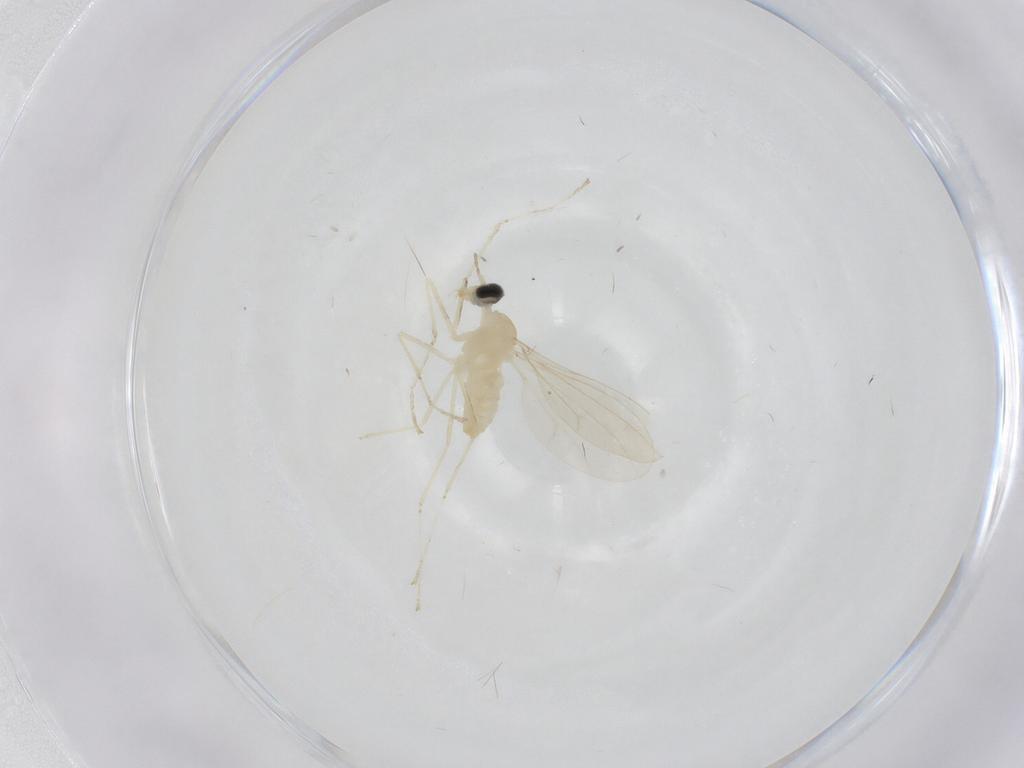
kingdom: Animalia
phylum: Arthropoda
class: Insecta
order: Diptera
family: Cecidomyiidae
